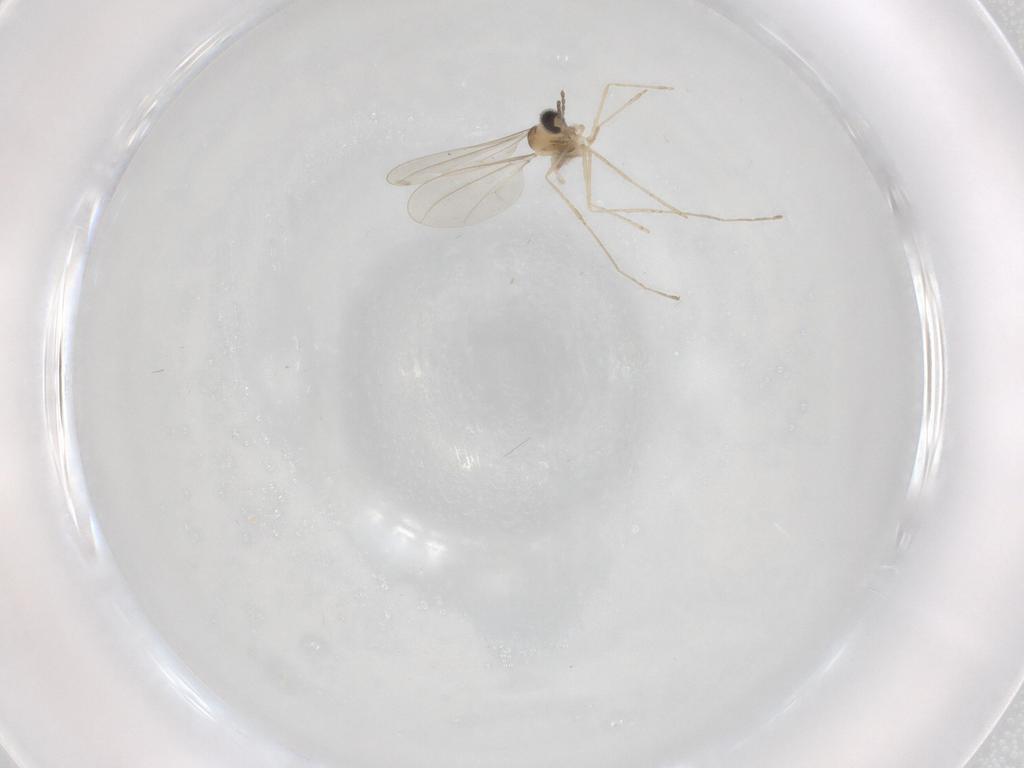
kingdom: Animalia
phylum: Arthropoda
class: Insecta
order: Diptera
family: Cecidomyiidae
